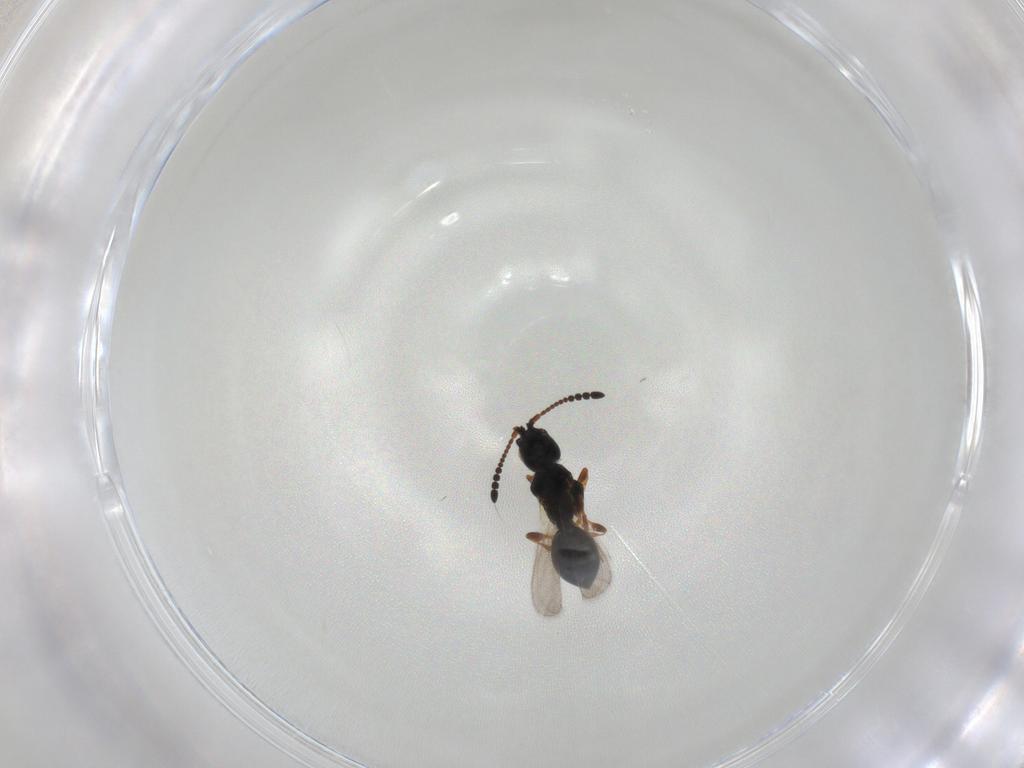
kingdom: Animalia
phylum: Arthropoda
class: Insecta
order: Hymenoptera
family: Diapriidae
